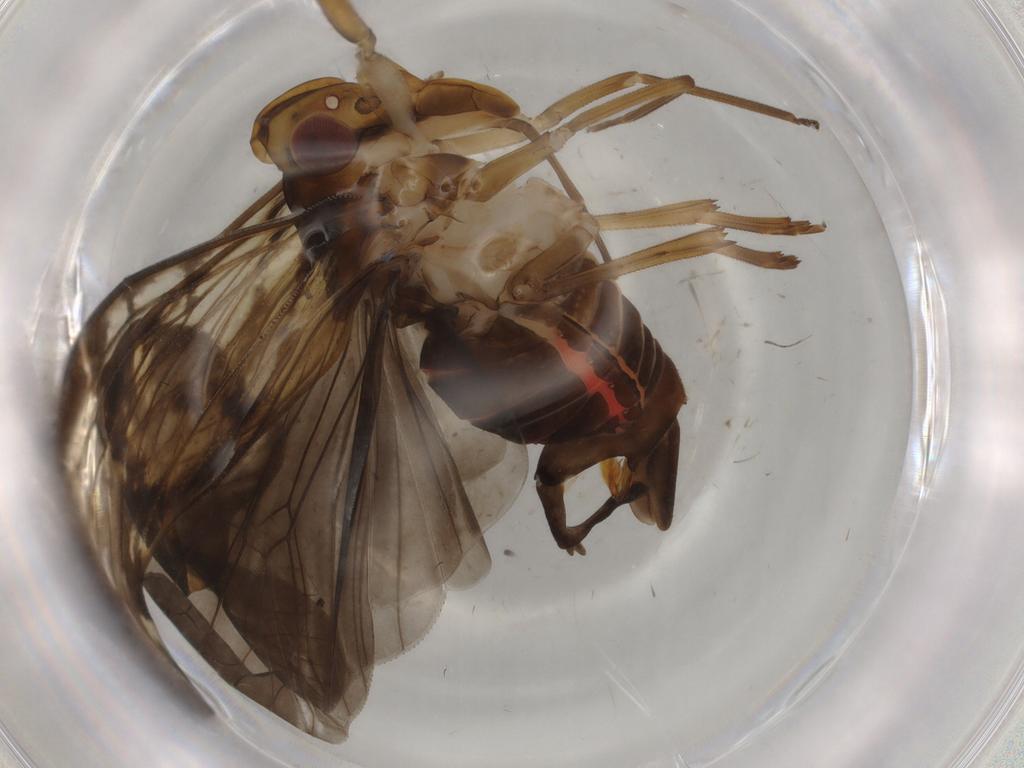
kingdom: Animalia
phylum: Arthropoda
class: Insecta
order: Hemiptera
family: Cixiidae
